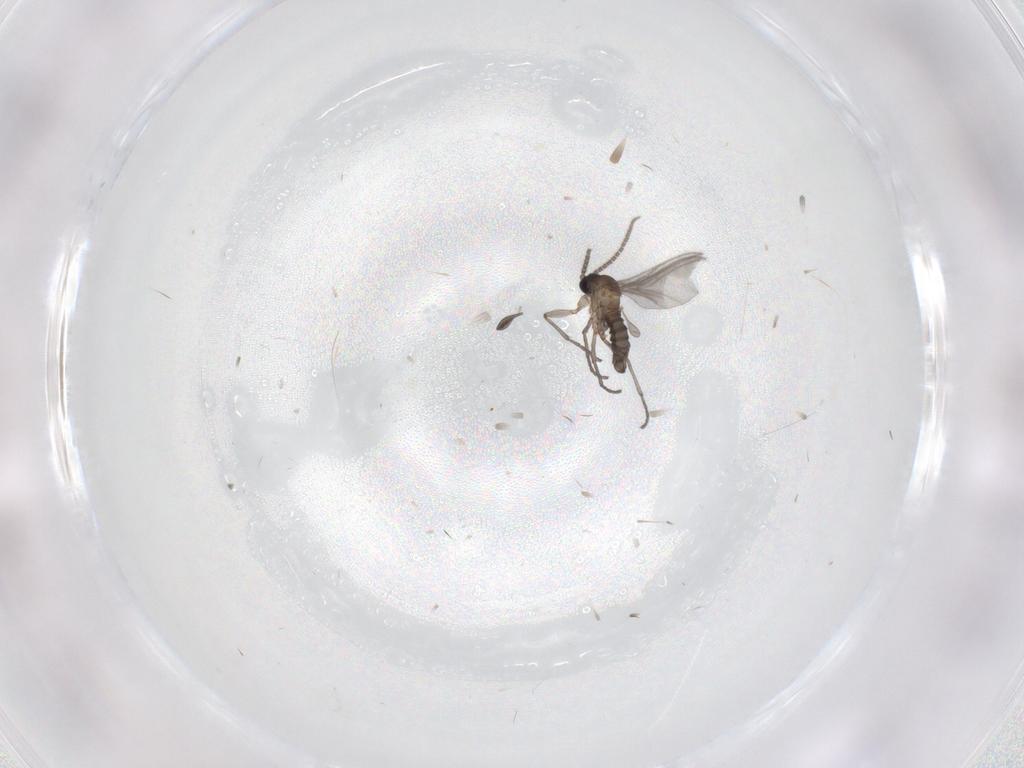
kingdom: Animalia
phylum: Arthropoda
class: Insecta
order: Diptera
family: Sciaridae
